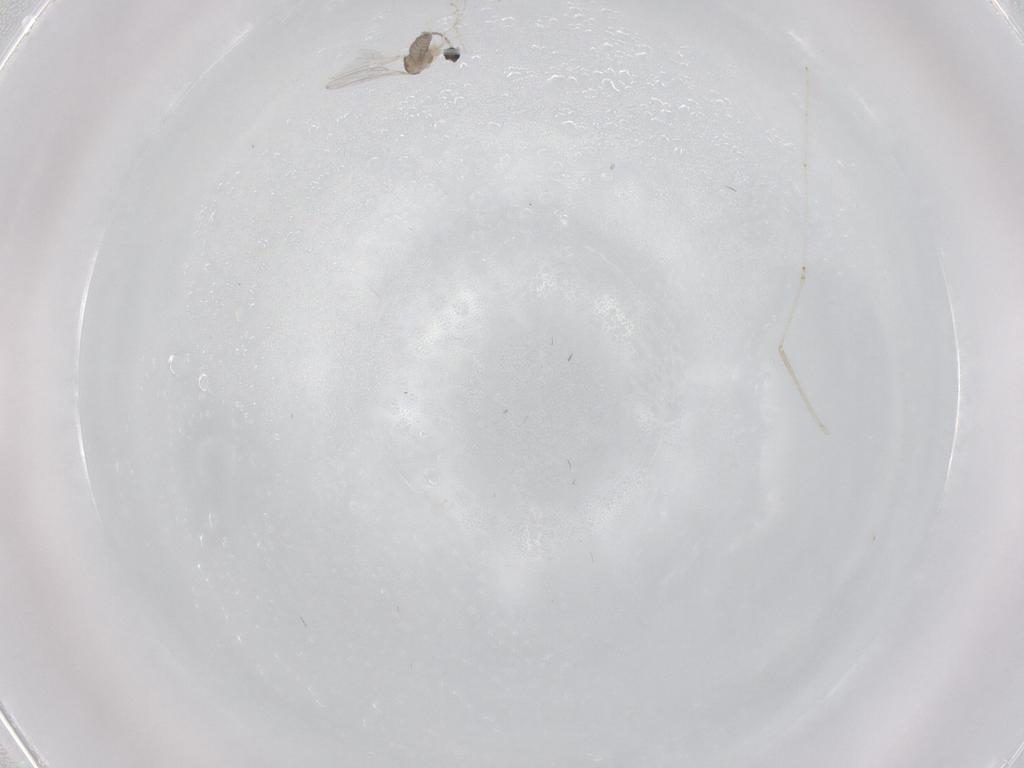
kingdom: Animalia
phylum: Arthropoda
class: Insecta
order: Diptera
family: Cecidomyiidae
